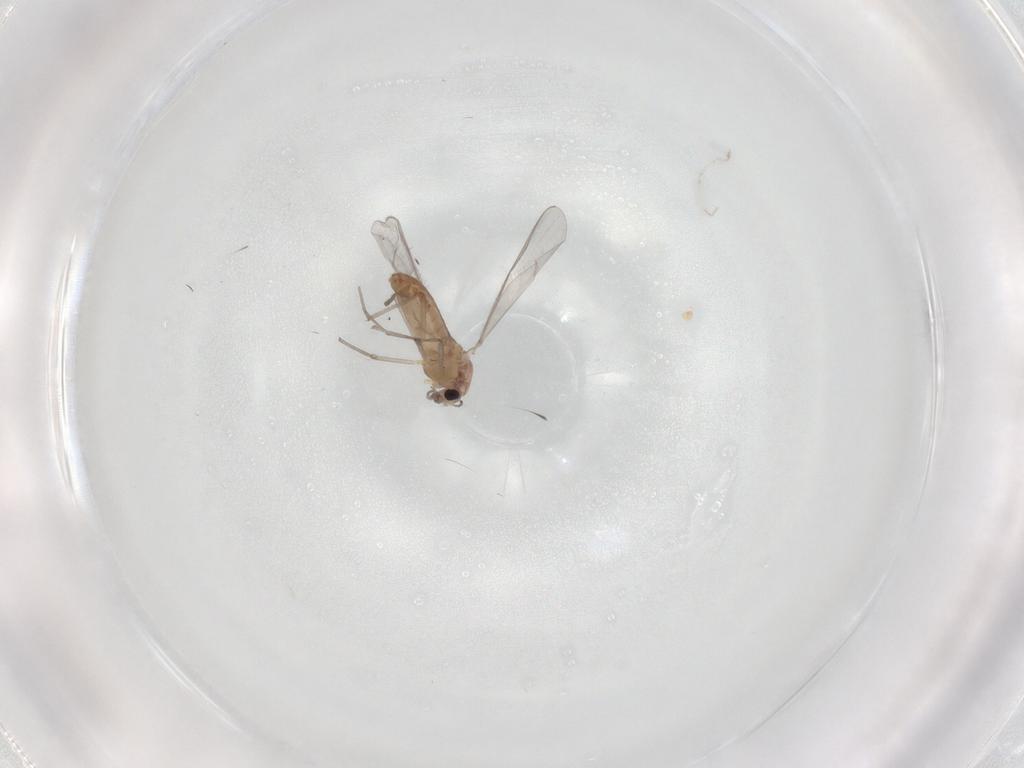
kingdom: Animalia
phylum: Arthropoda
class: Insecta
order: Diptera
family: Chironomidae
